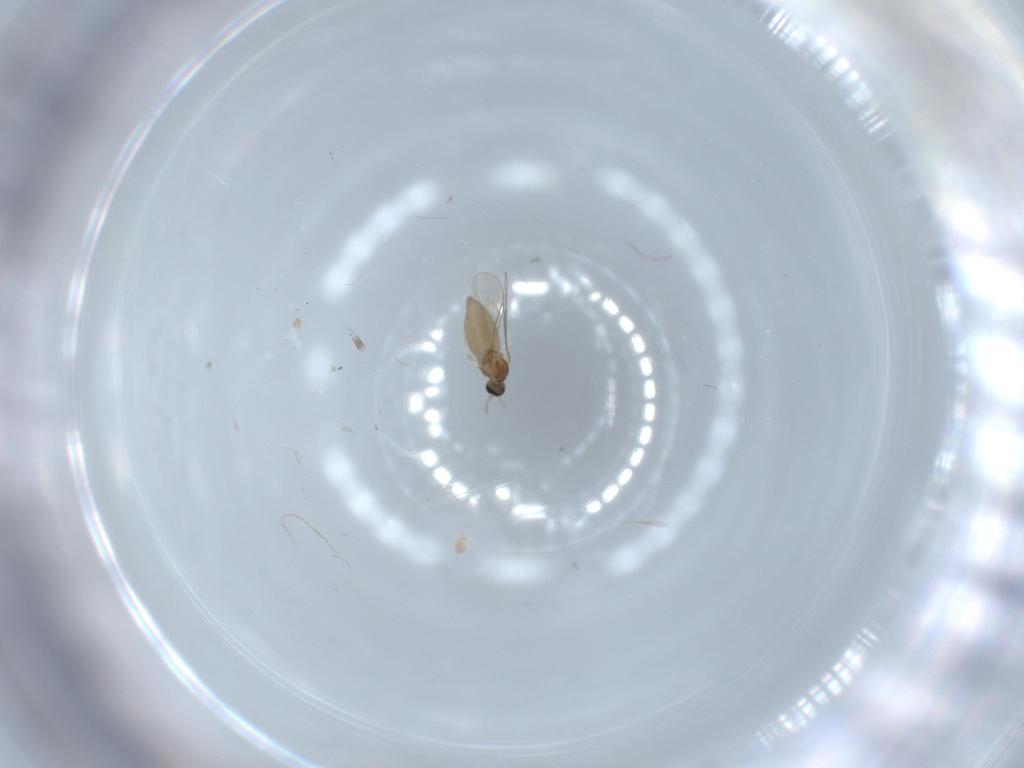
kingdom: Animalia
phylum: Arthropoda
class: Insecta
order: Diptera
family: Cecidomyiidae
